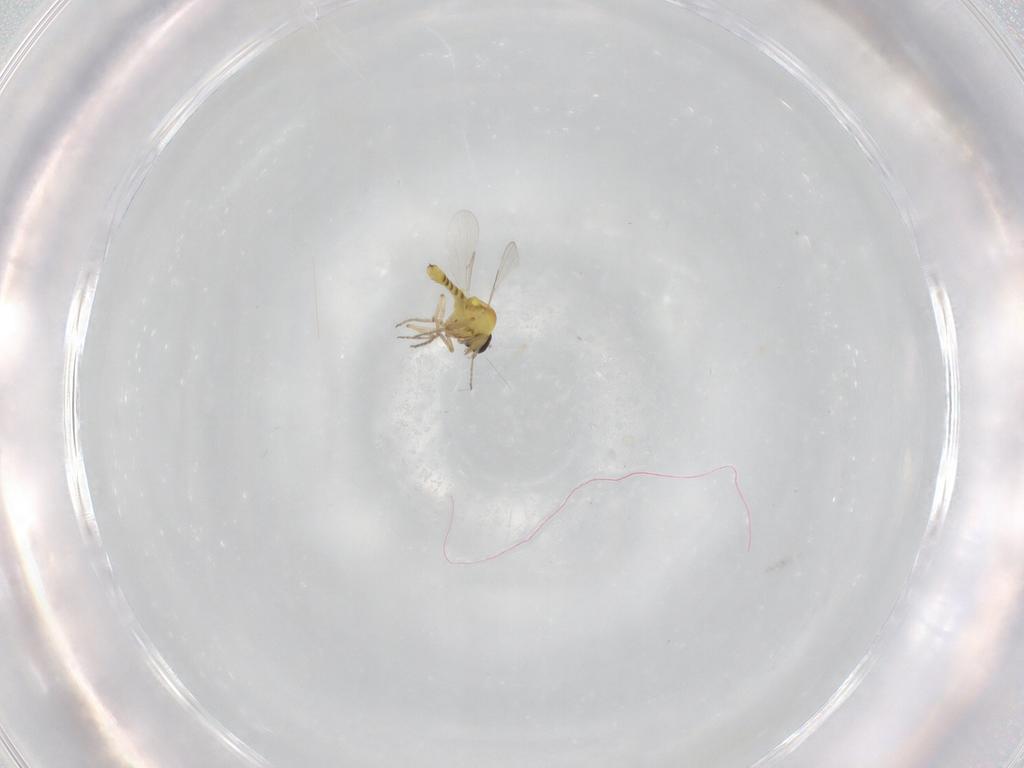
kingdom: Animalia
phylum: Arthropoda
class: Insecta
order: Diptera
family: Ceratopogonidae
